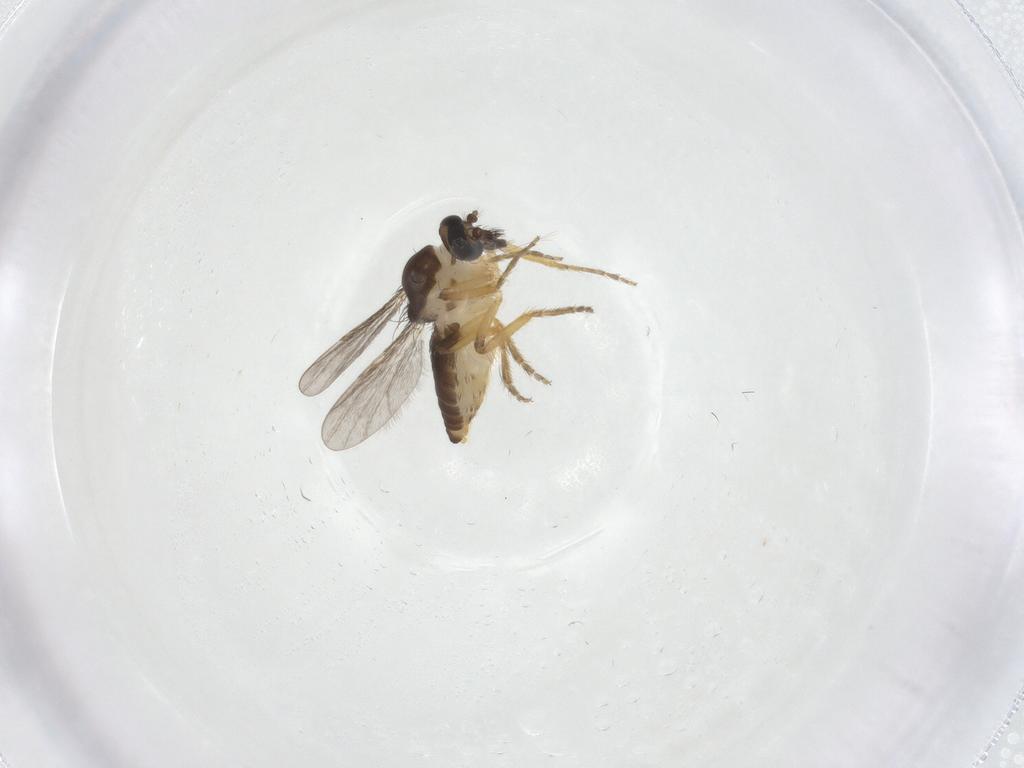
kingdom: Animalia
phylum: Arthropoda
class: Insecta
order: Diptera
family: Ceratopogonidae
